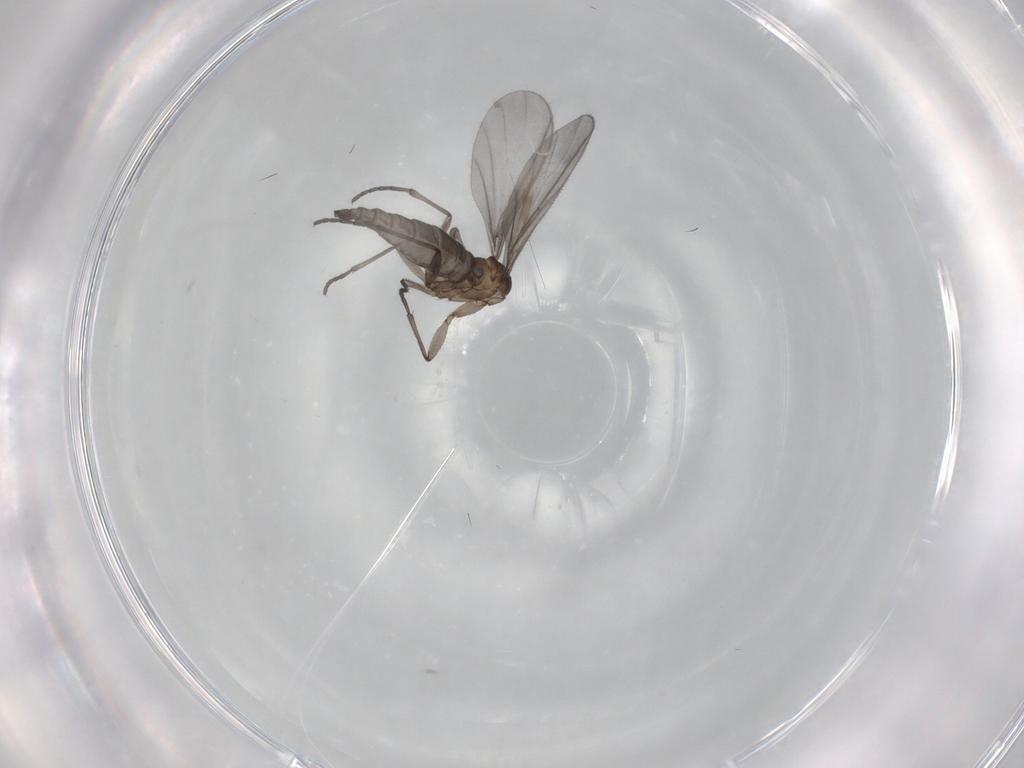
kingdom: Animalia
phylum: Arthropoda
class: Insecta
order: Diptera
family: Sciaridae
